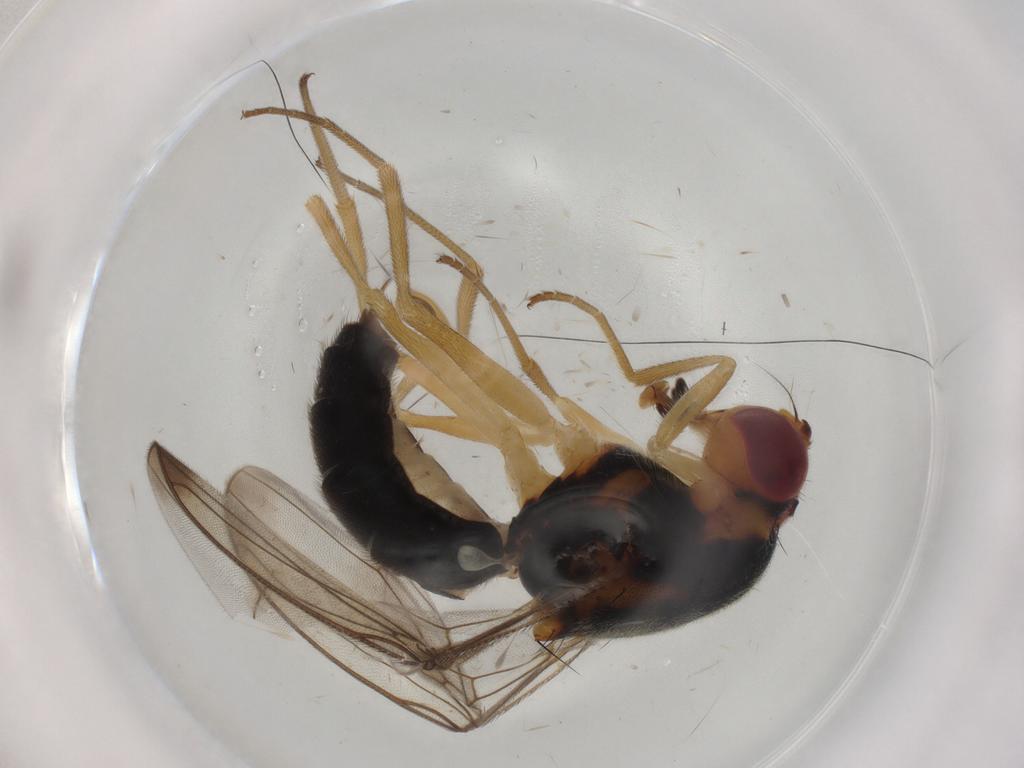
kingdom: Animalia
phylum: Arthropoda
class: Insecta
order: Diptera
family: Psilidae
